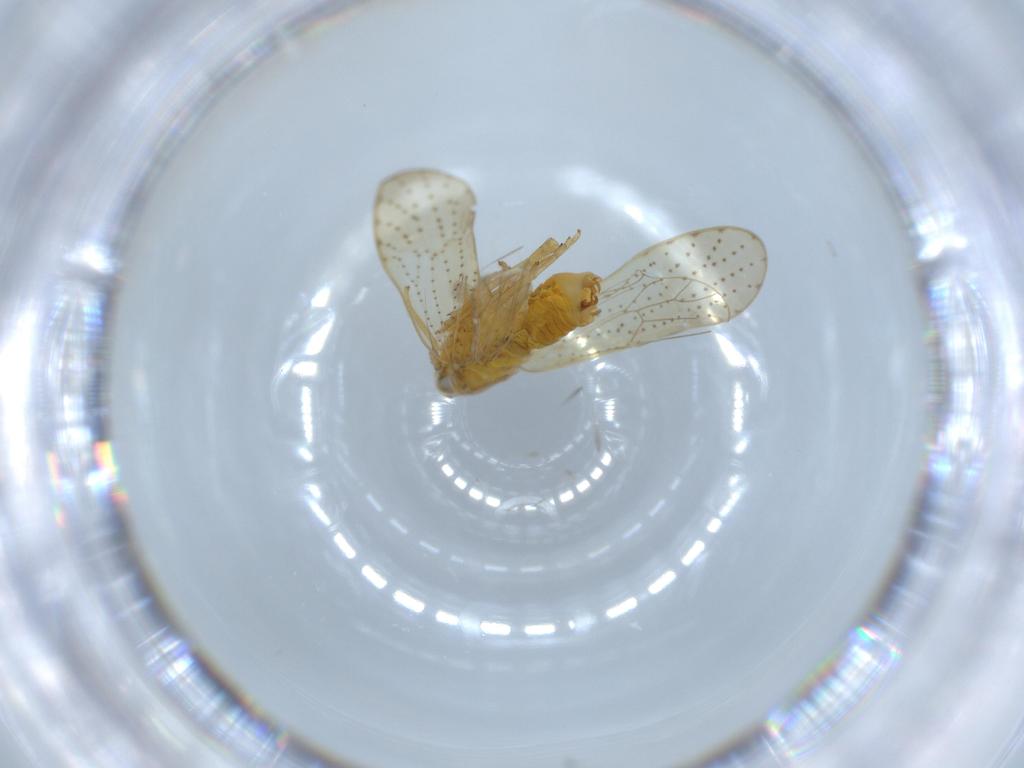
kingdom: Animalia
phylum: Arthropoda
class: Insecta
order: Hemiptera
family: Delphacidae
